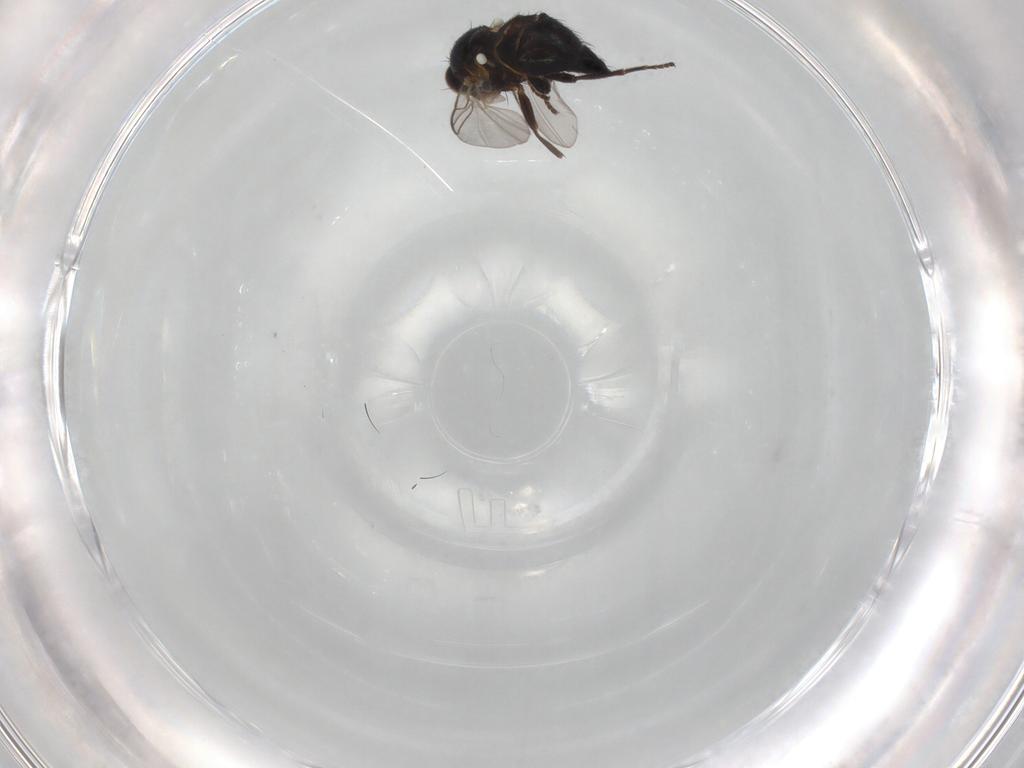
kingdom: Animalia
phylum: Arthropoda
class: Insecta
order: Diptera
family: Agromyzidae
